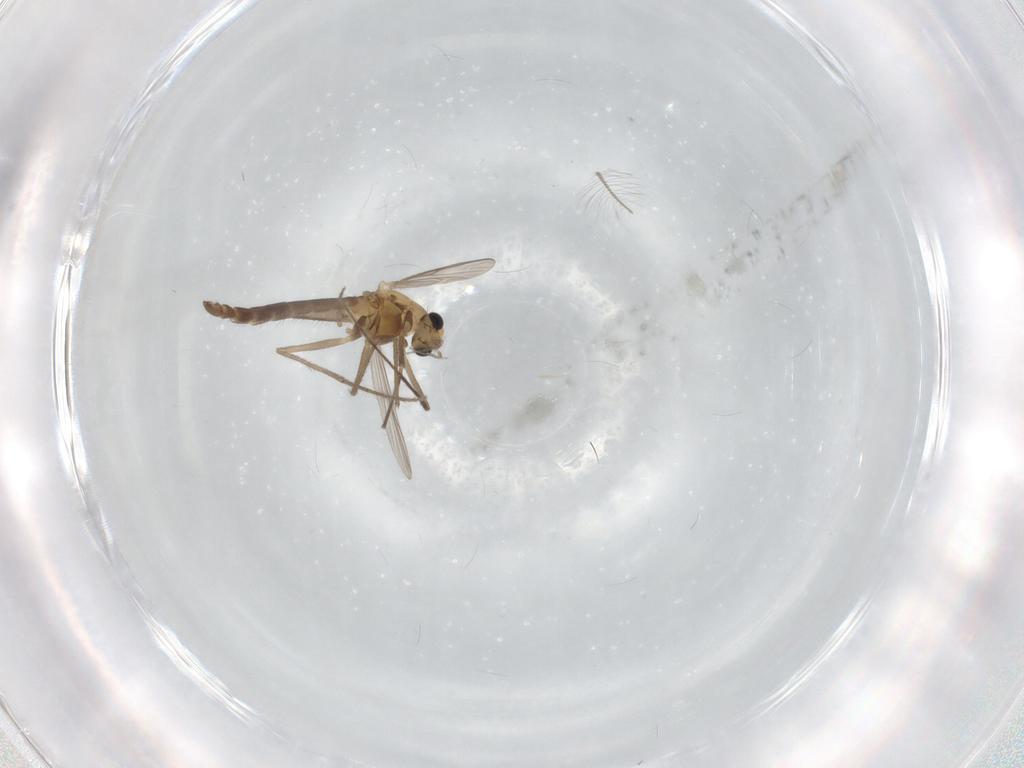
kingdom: Animalia
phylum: Arthropoda
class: Insecta
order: Diptera
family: Chironomidae
